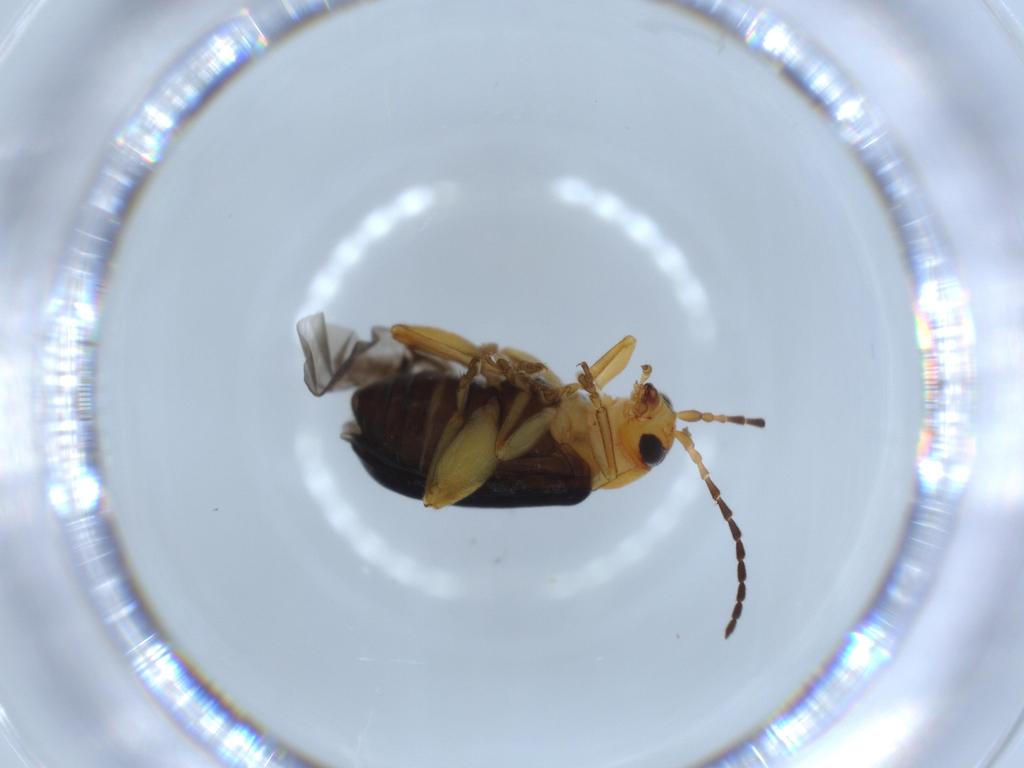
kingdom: Animalia
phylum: Arthropoda
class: Insecta
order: Coleoptera
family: Chrysomelidae
